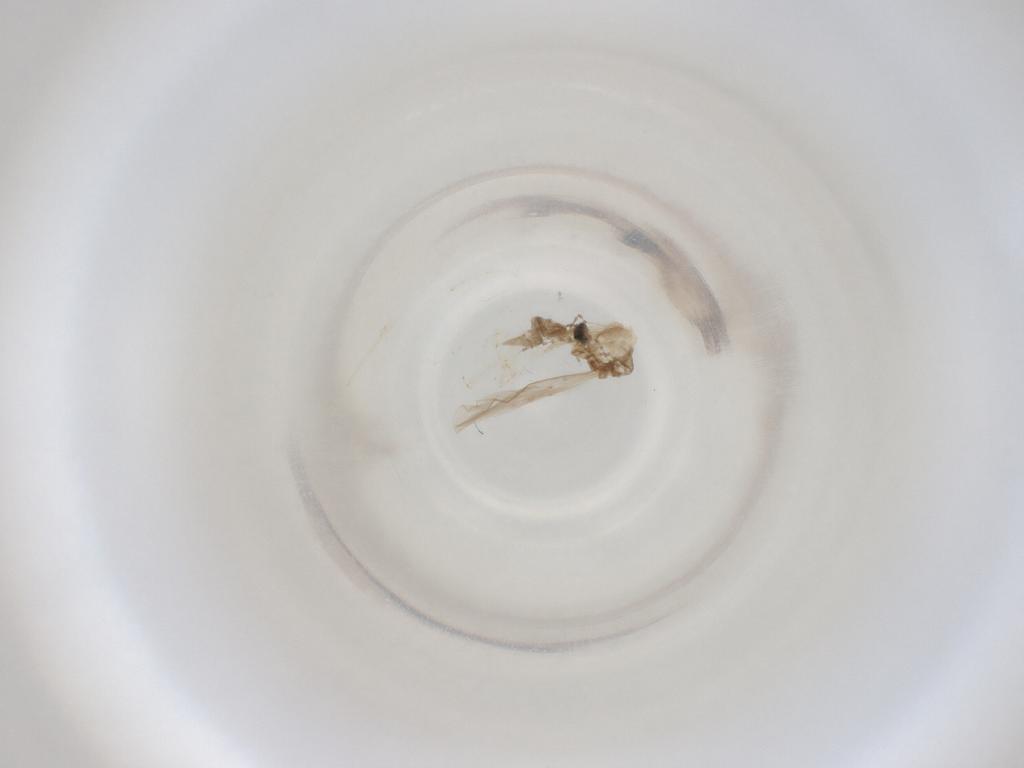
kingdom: Animalia
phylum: Arthropoda
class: Insecta
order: Diptera
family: Cecidomyiidae
